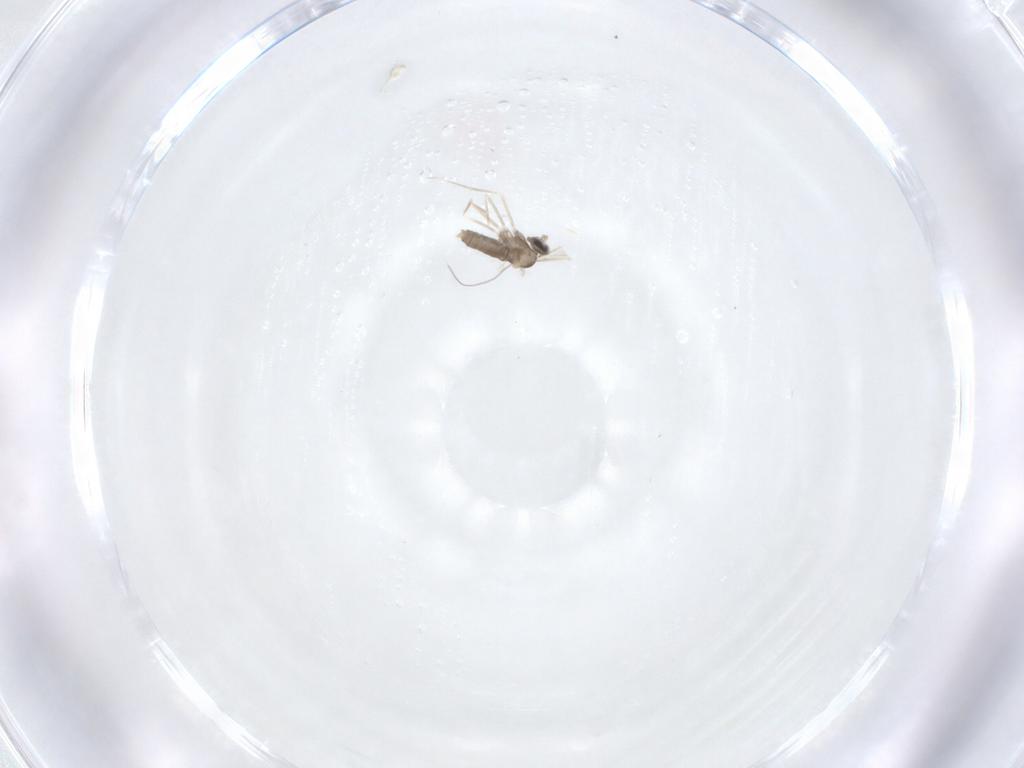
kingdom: Animalia
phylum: Arthropoda
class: Insecta
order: Diptera
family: Cecidomyiidae
